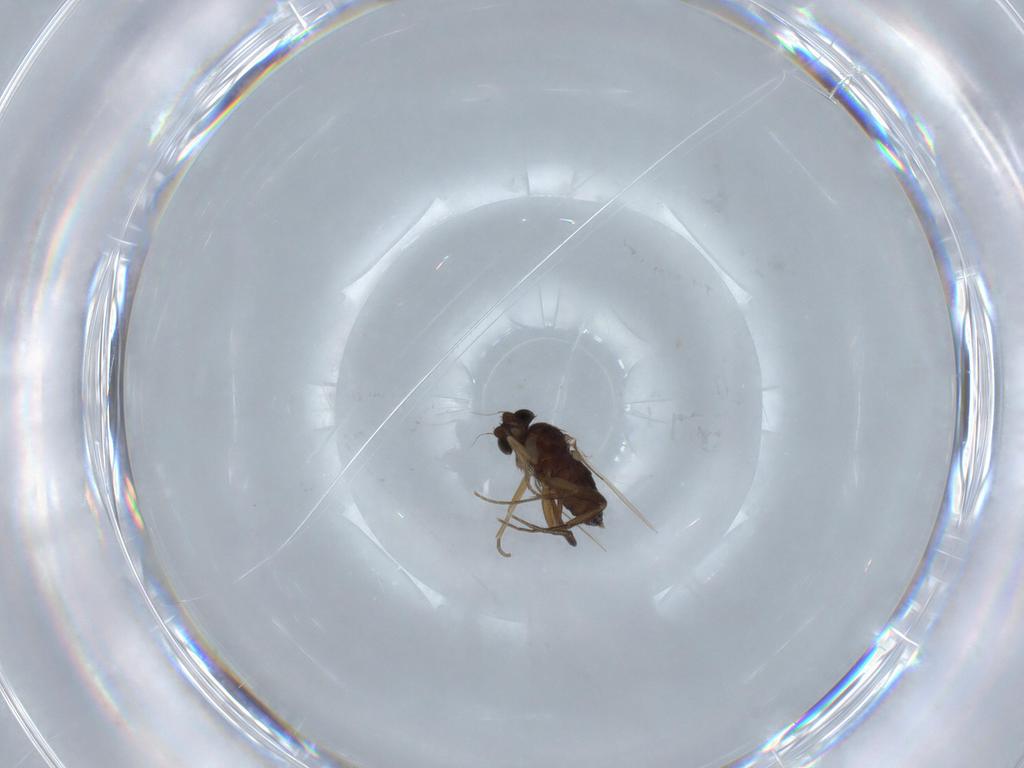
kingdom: Animalia
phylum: Arthropoda
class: Insecta
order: Diptera
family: Ceratopogonidae
